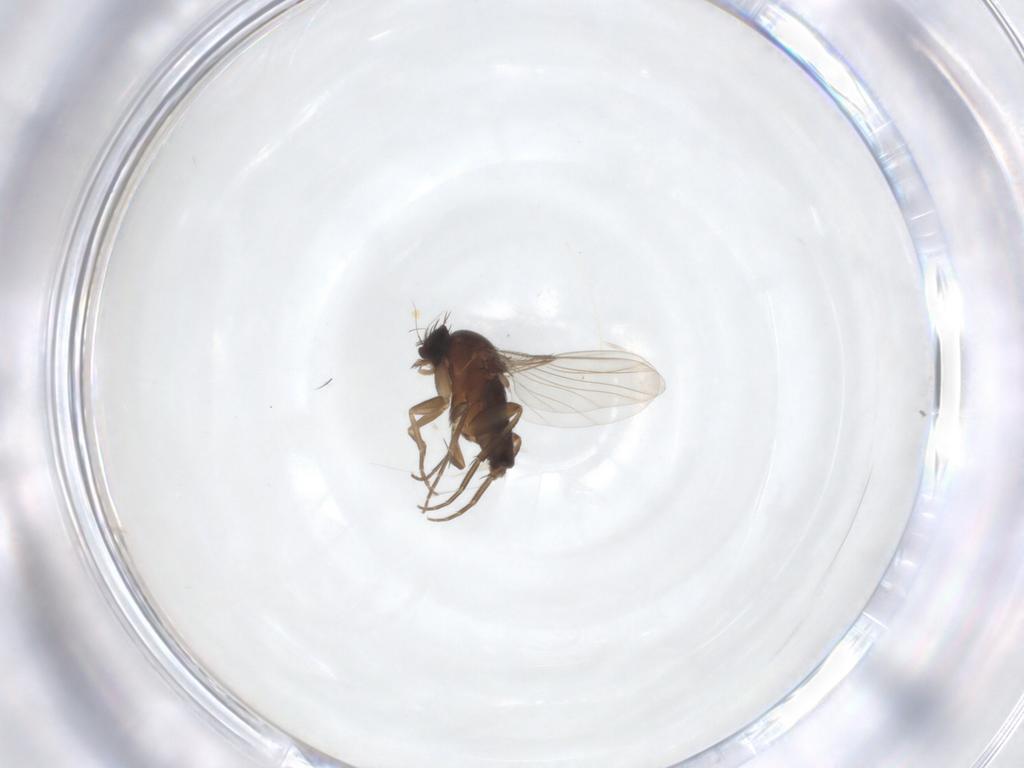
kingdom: Animalia
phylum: Arthropoda
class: Insecta
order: Diptera
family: Phoridae
